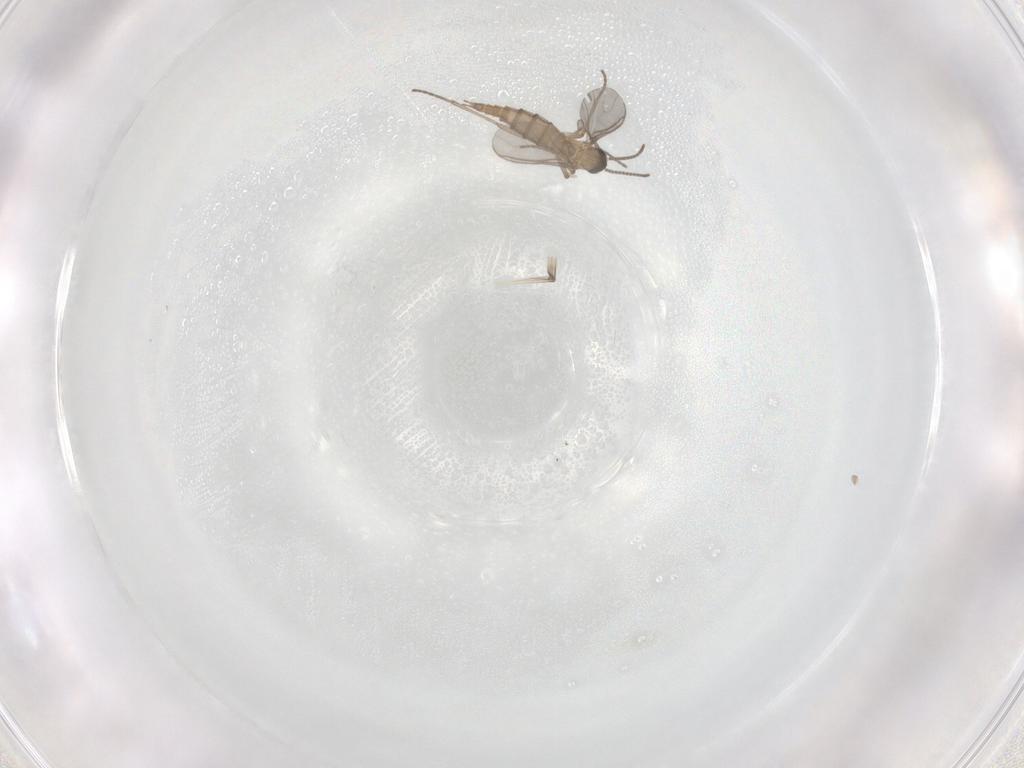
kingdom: Animalia
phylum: Arthropoda
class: Insecta
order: Diptera
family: Sciaridae
